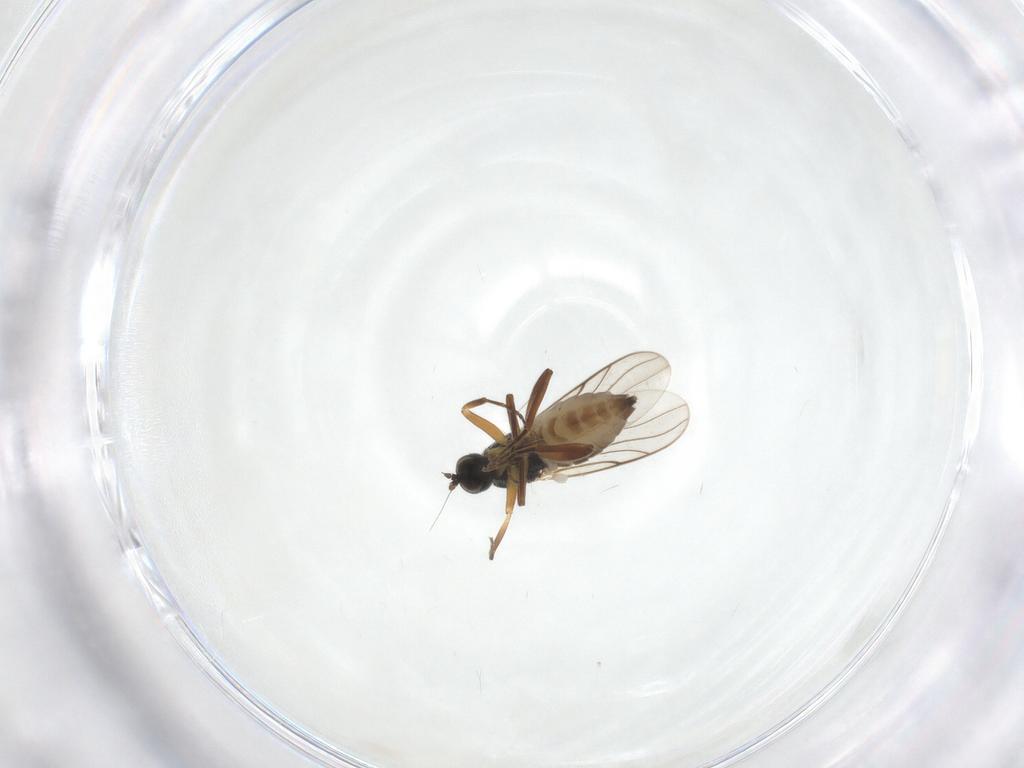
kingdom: Animalia
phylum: Arthropoda
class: Insecta
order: Diptera
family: Hybotidae
